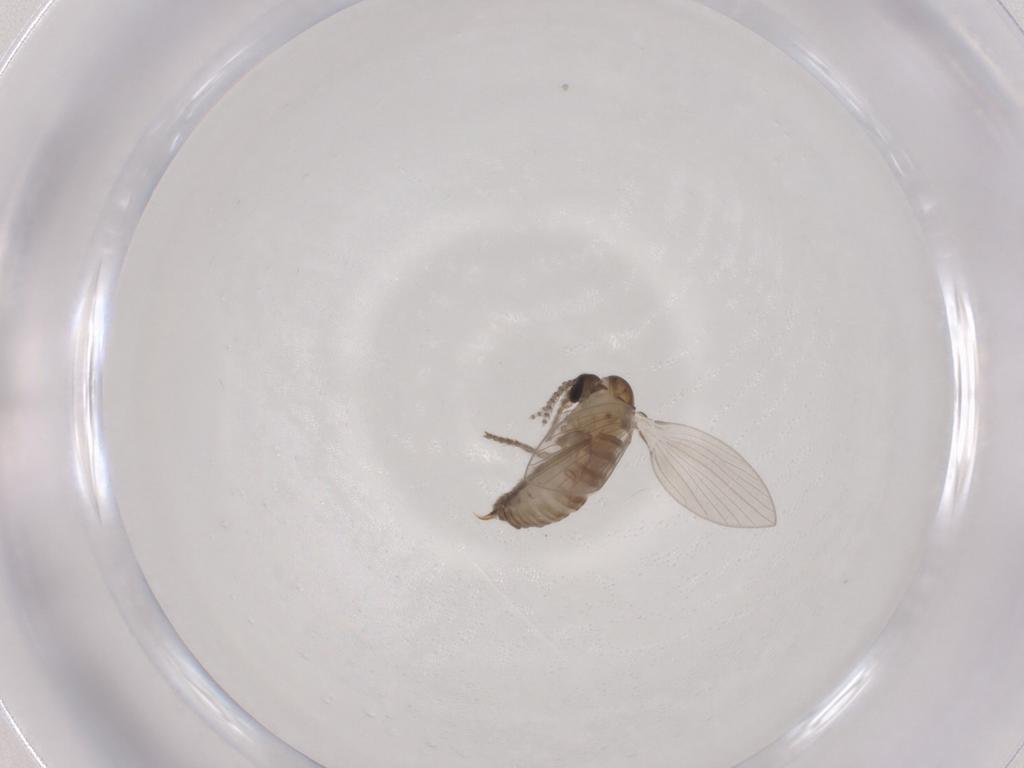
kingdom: Animalia
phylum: Arthropoda
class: Insecta
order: Diptera
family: Psychodidae
